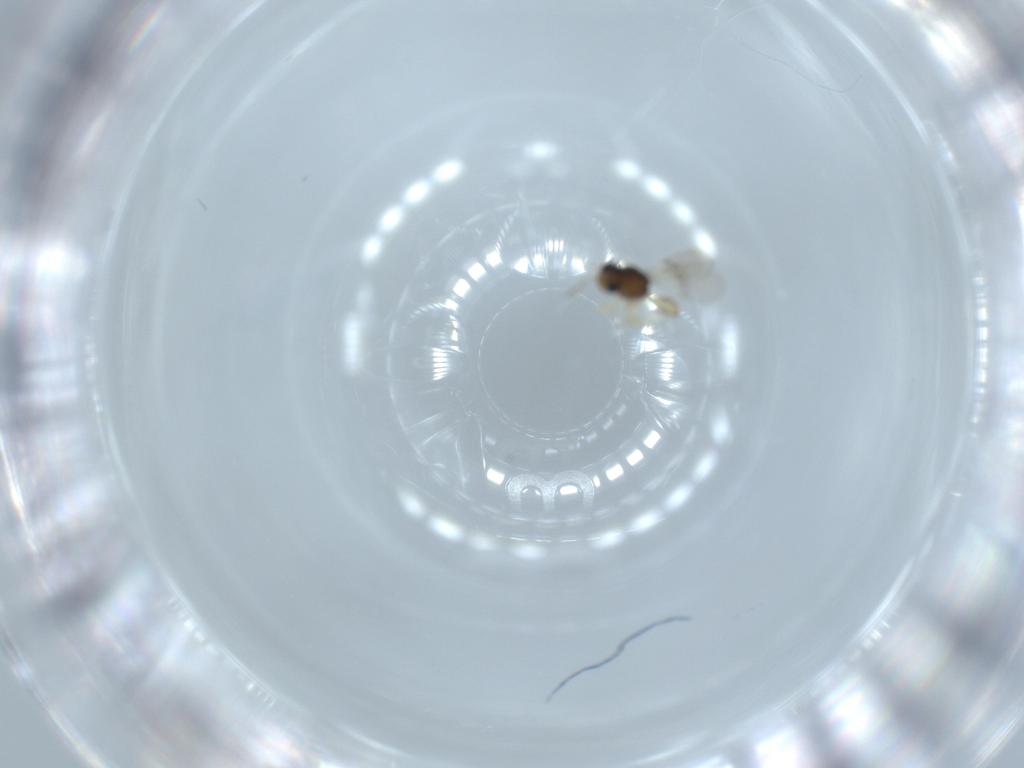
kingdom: Animalia
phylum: Arthropoda
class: Insecta
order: Hymenoptera
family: Scelionidae
